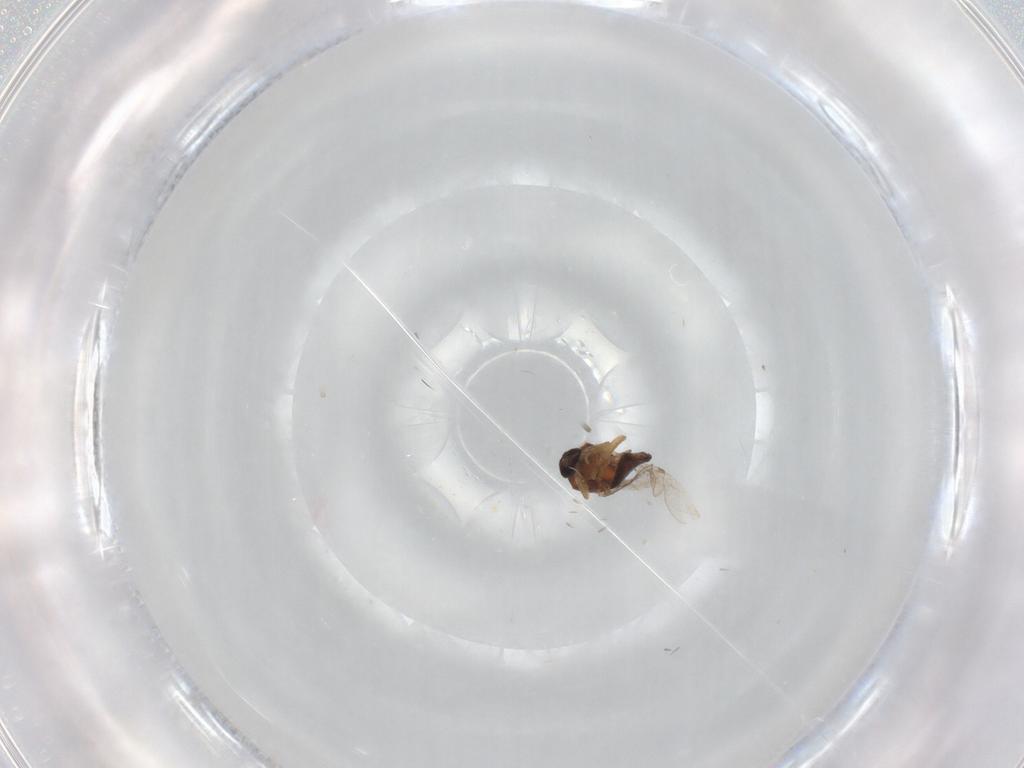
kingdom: Animalia
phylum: Arthropoda
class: Insecta
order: Diptera
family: Ceratopogonidae
